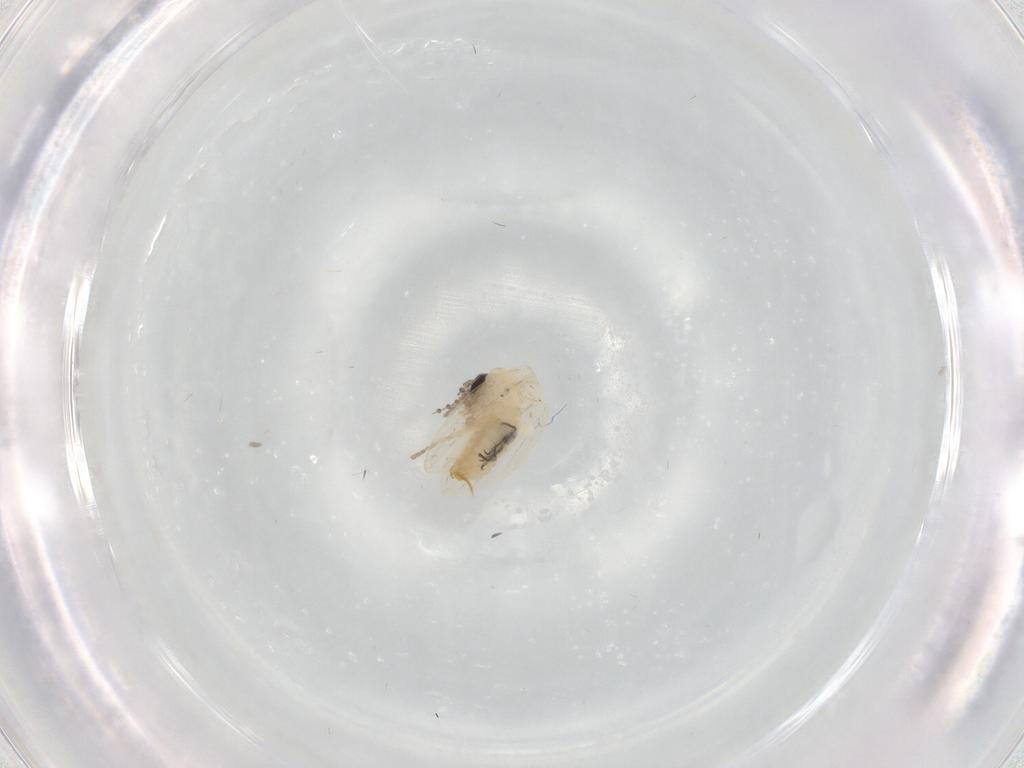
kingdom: Animalia
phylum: Arthropoda
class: Insecta
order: Diptera
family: Psychodidae
